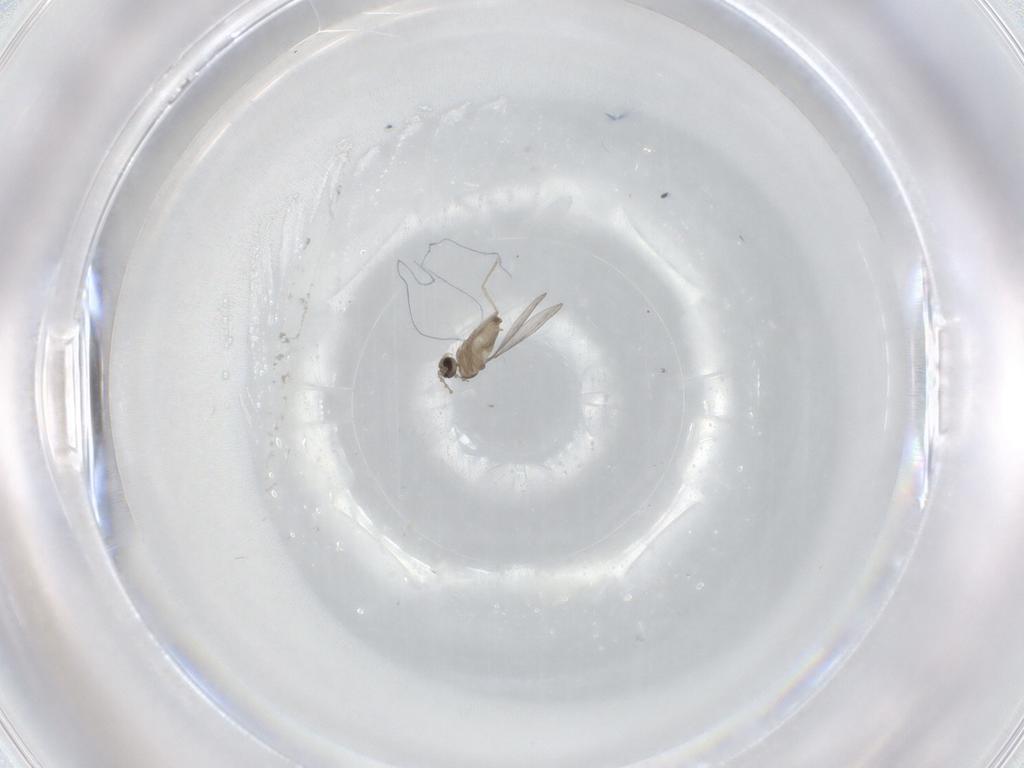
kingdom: Animalia
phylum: Arthropoda
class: Insecta
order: Diptera
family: Cecidomyiidae
